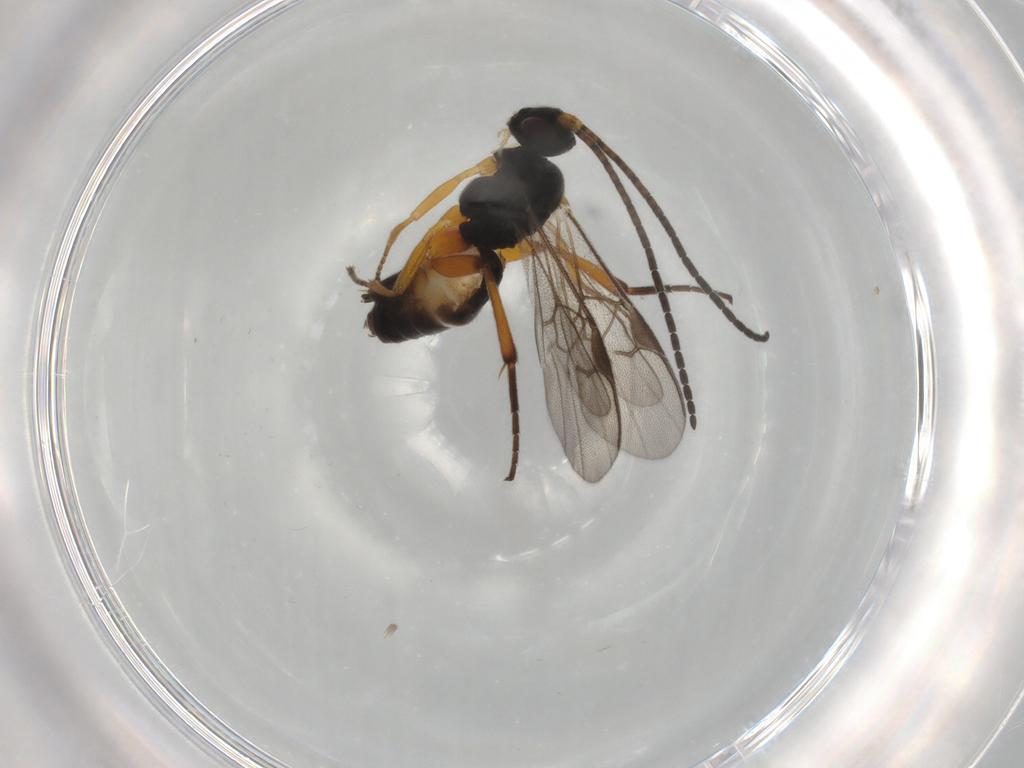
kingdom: Animalia
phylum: Arthropoda
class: Insecta
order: Hymenoptera
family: Braconidae
